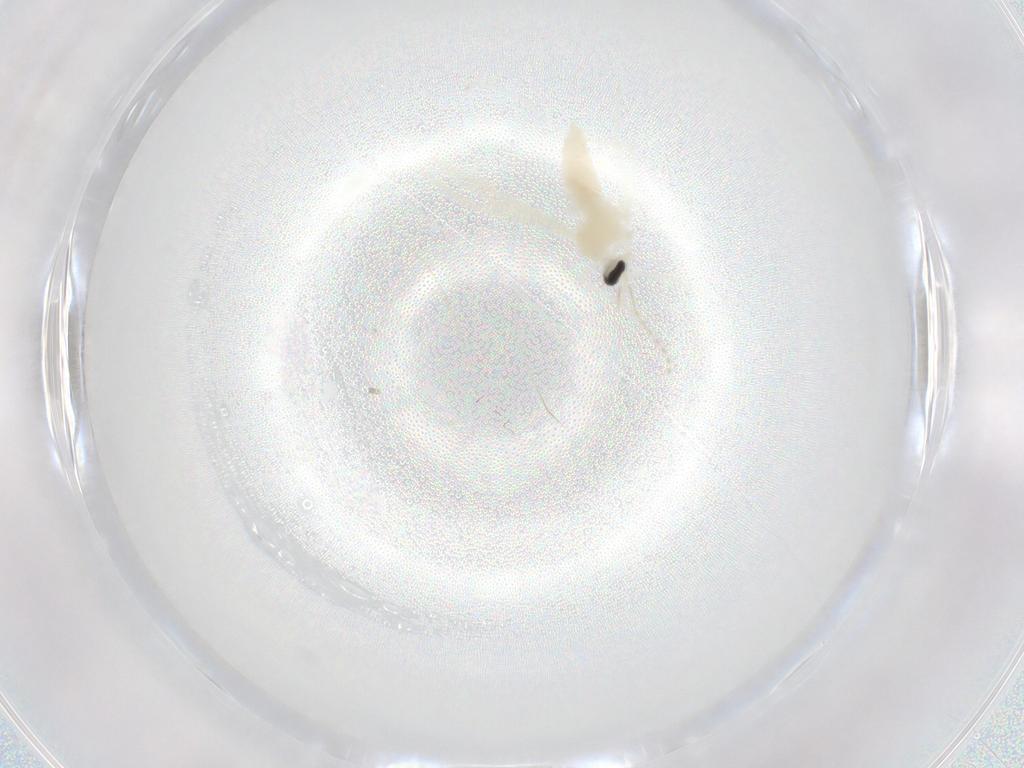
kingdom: Animalia
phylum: Arthropoda
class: Insecta
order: Diptera
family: Cecidomyiidae
